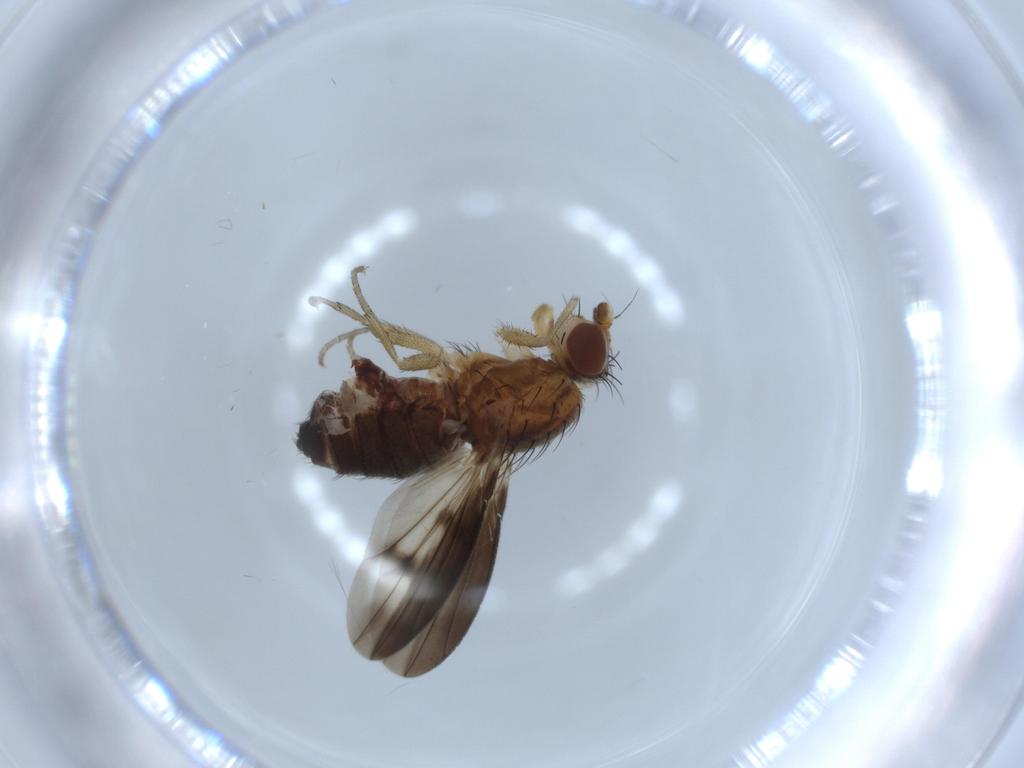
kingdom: Animalia
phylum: Arthropoda
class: Insecta
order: Diptera
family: Heleomyzidae
